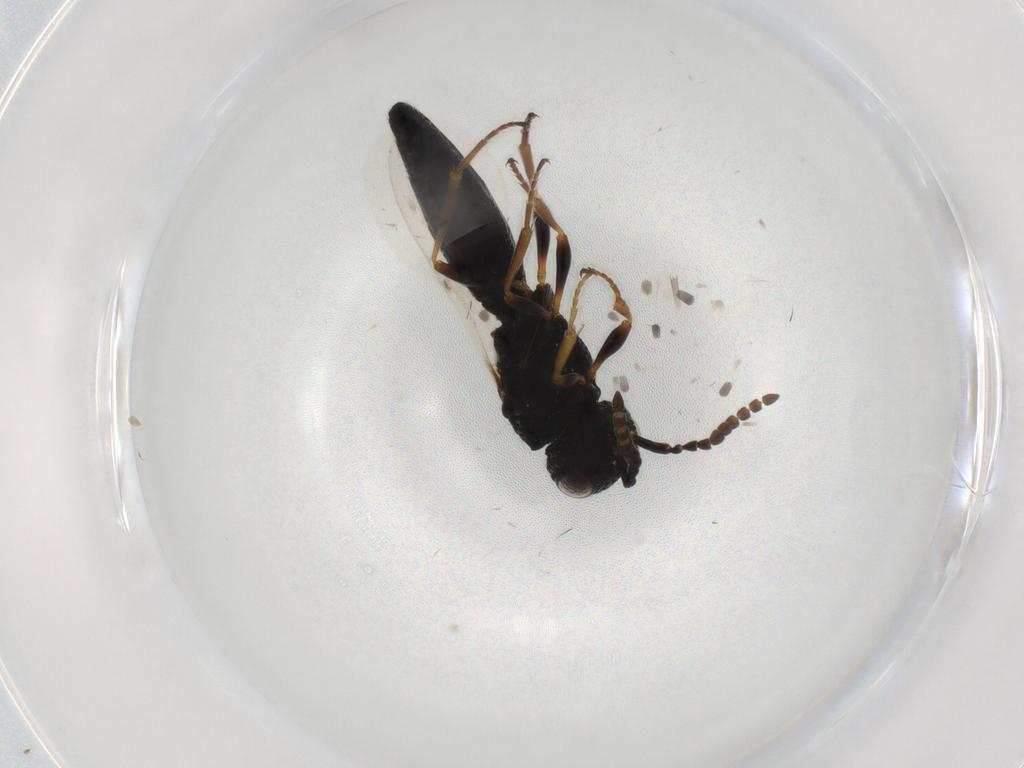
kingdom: Animalia
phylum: Arthropoda
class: Insecta
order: Hymenoptera
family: Scelionidae
